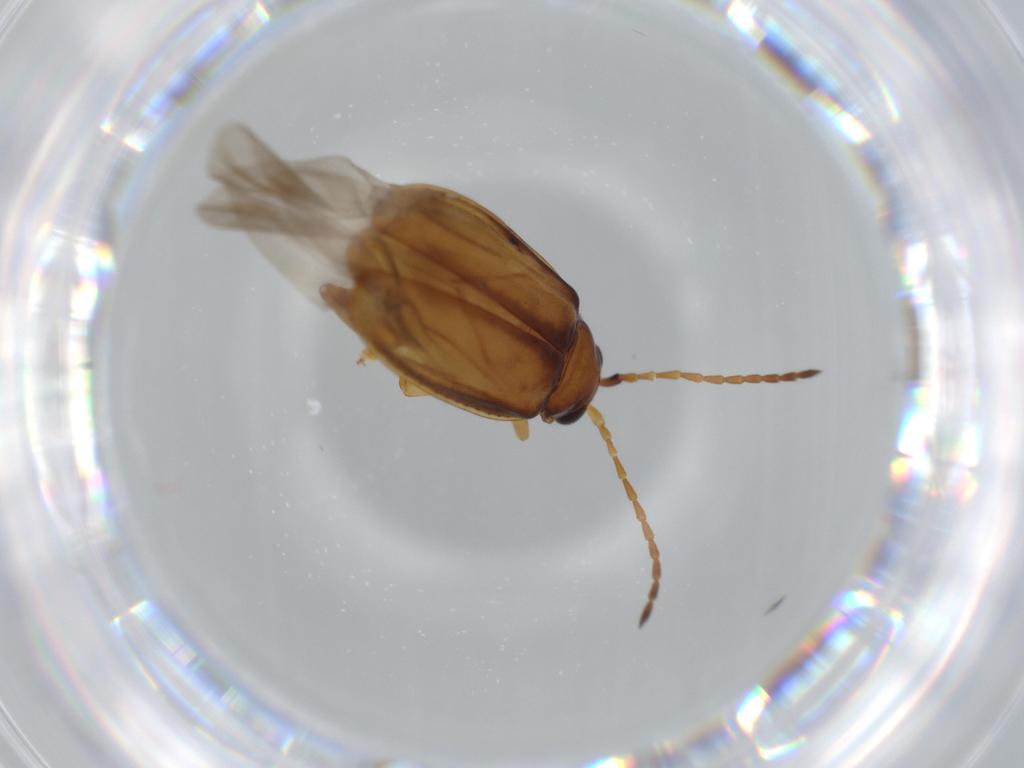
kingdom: Animalia
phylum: Arthropoda
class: Insecta
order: Coleoptera
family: Chrysomelidae
